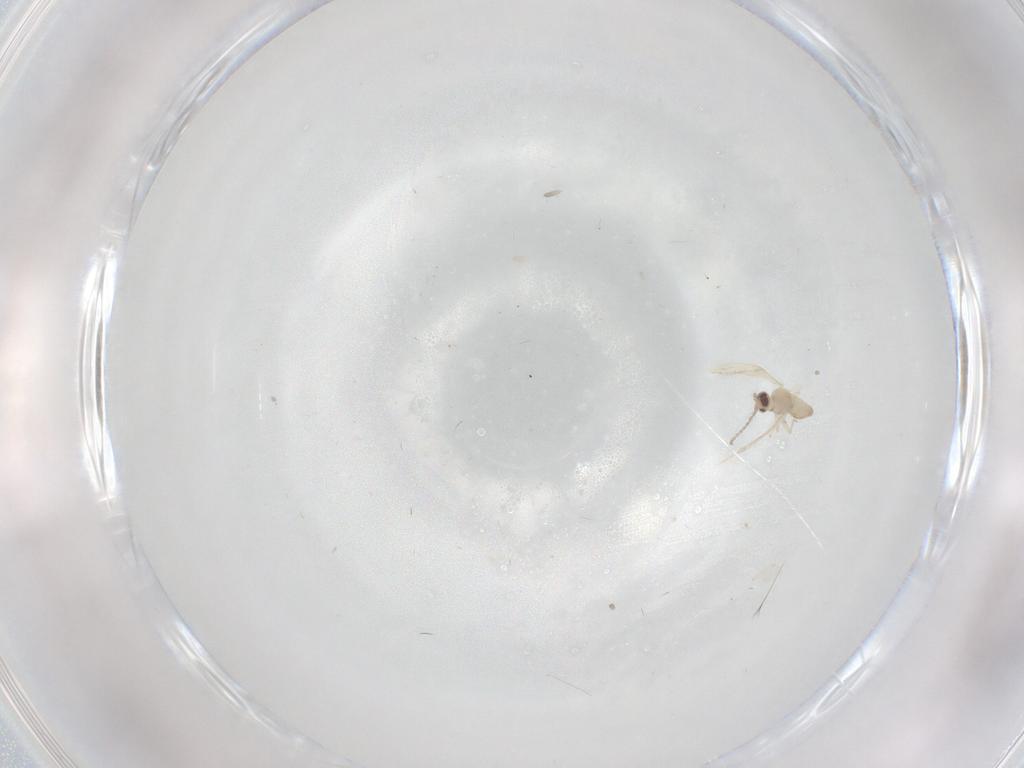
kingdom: Animalia
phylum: Arthropoda
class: Insecta
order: Diptera
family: Cecidomyiidae
